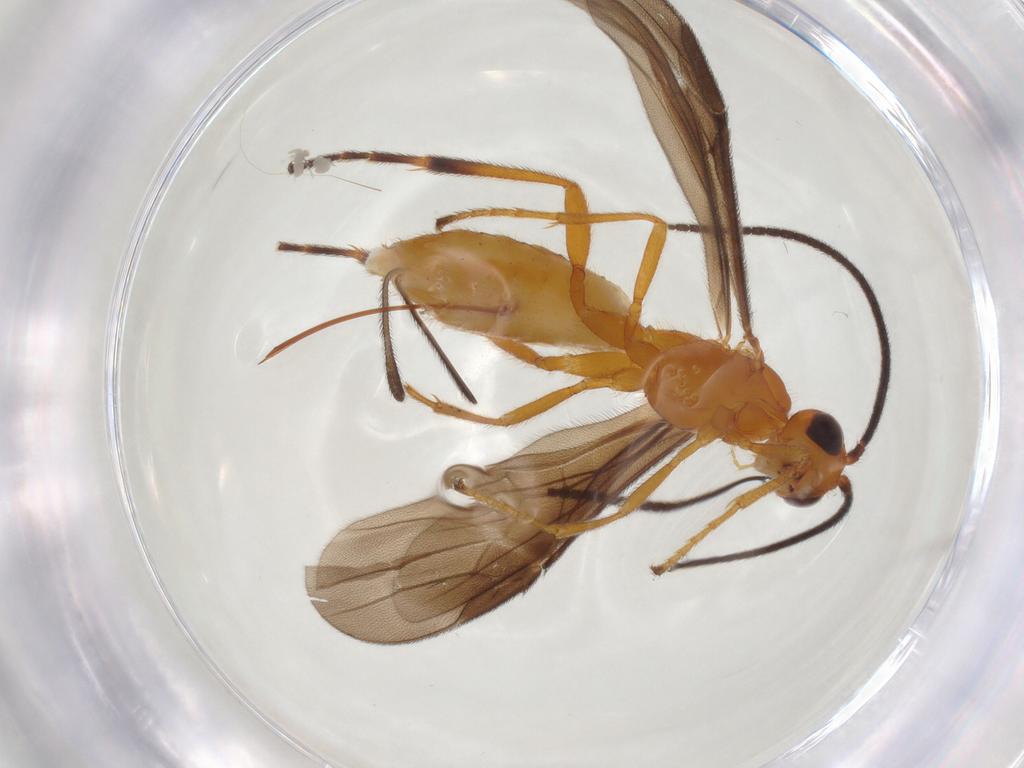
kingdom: Animalia
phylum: Arthropoda
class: Insecta
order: Hymenoptera
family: Braconidae
